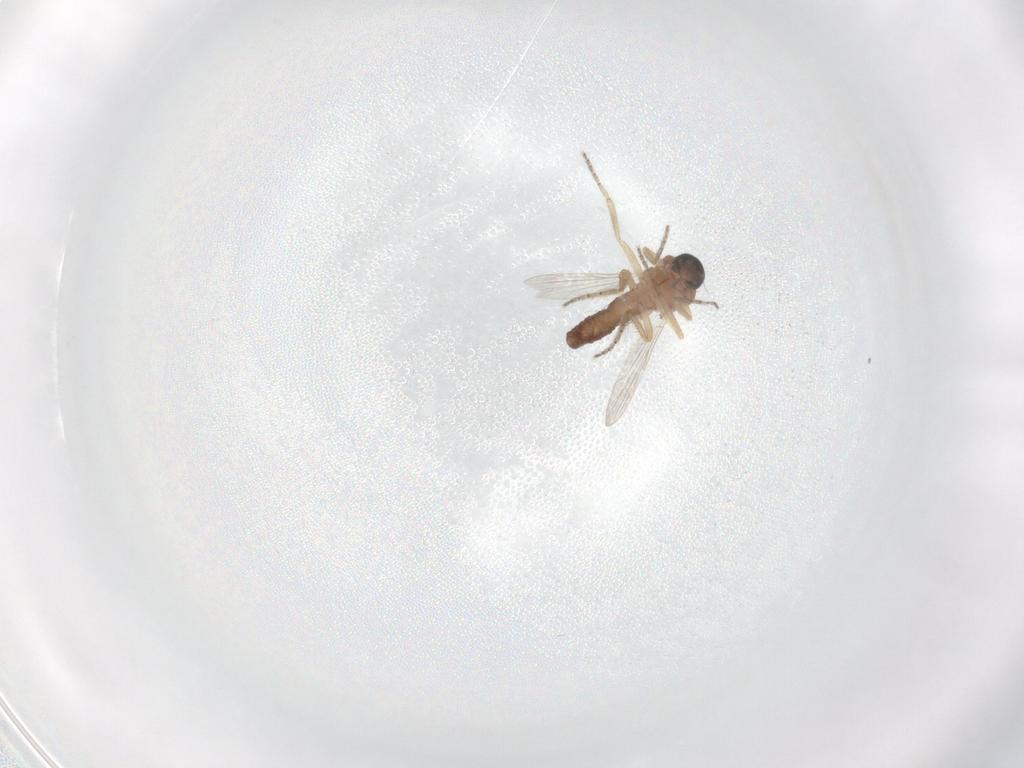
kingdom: Animalia
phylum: Arthropoda
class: Insecta
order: Diptera
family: Ceratopogonidae
